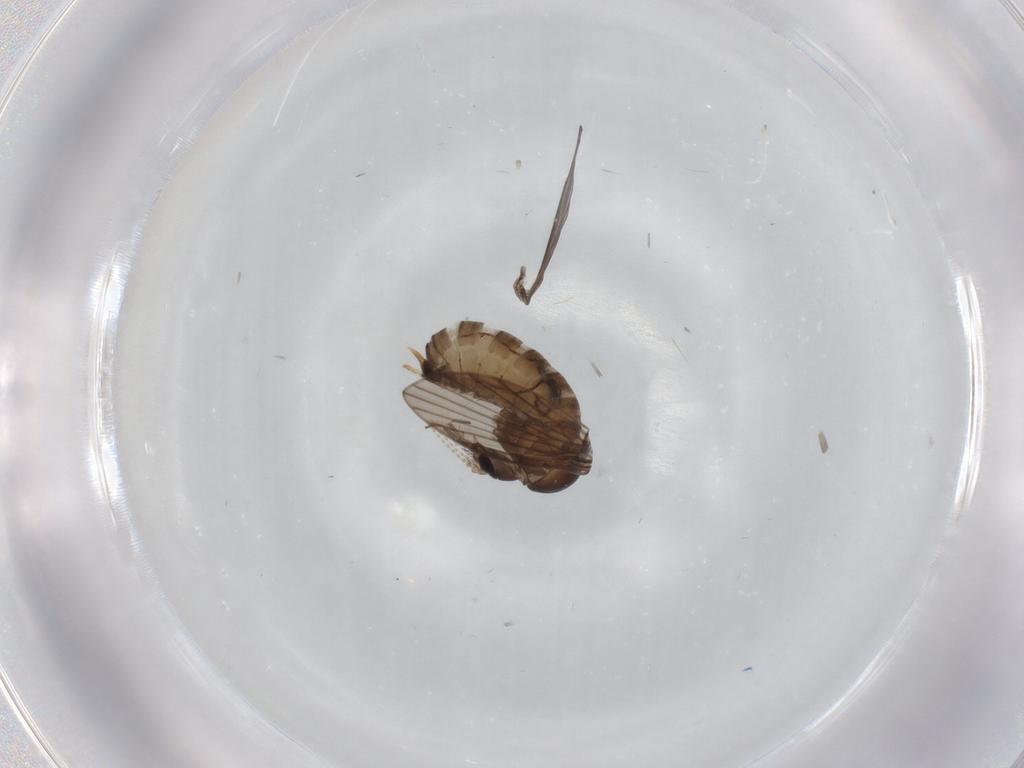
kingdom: Animalia
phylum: Arthropoda
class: Insecta
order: Diptera
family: Psychodidae
